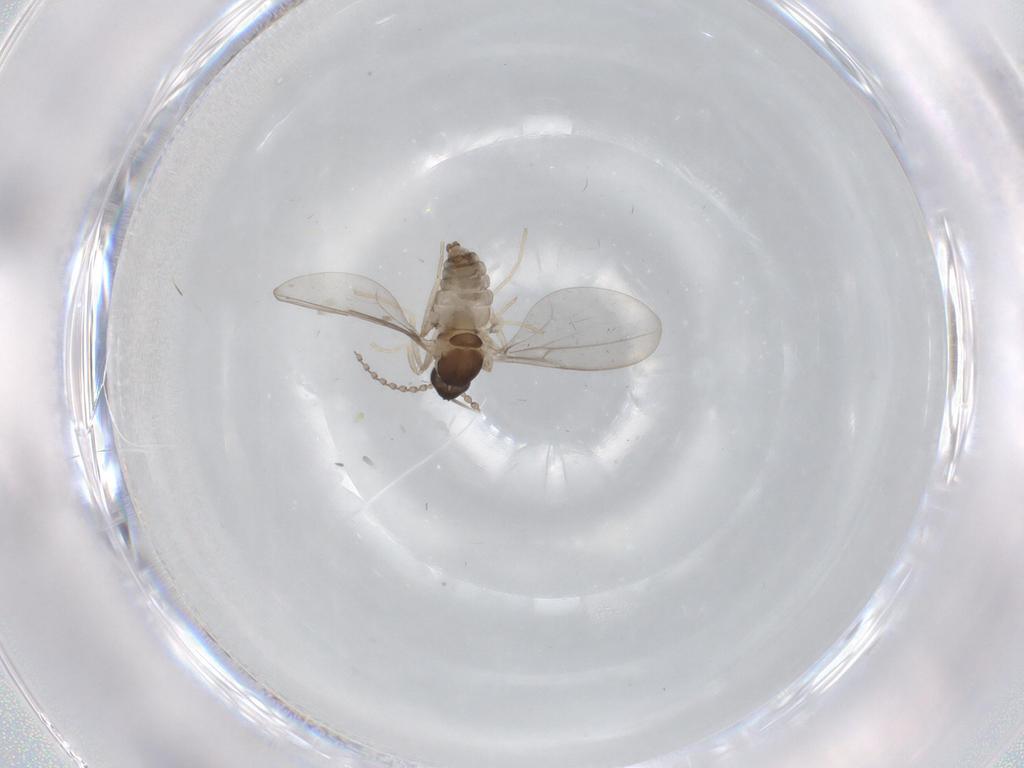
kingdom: Animalia
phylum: Arthropoda
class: Insecta
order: Diptera
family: Cecidomyiidae
